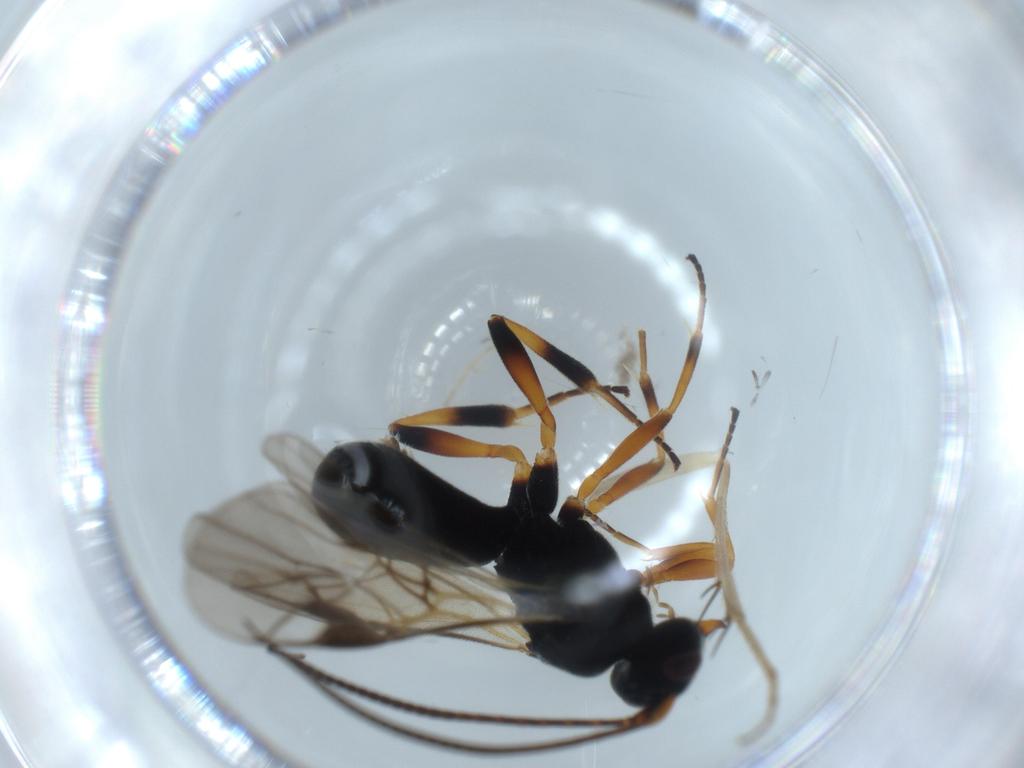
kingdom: Animalia
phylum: Arthropoda
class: Insecta
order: Hymenoptera
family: Braconidae
